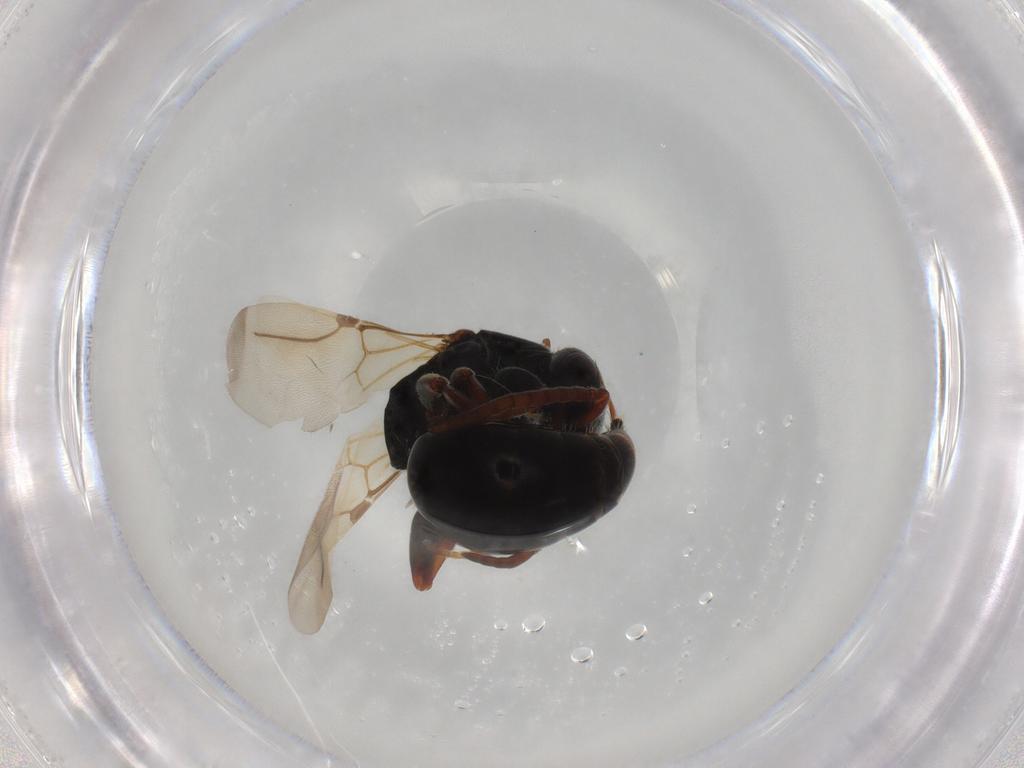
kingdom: Animalia
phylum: Arthropoda
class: Insecta
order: Hymenoptera
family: Bethylidae
